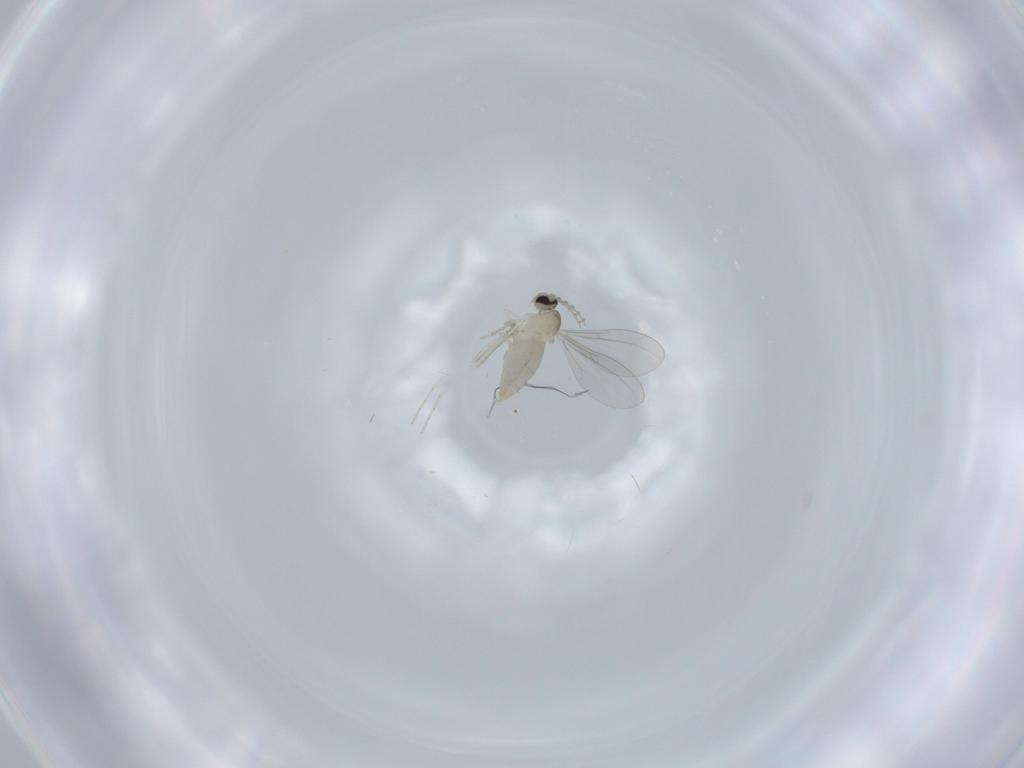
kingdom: Animalia
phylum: Arthropoda
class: Insecta
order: Diptera
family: Cecidomyiidae
